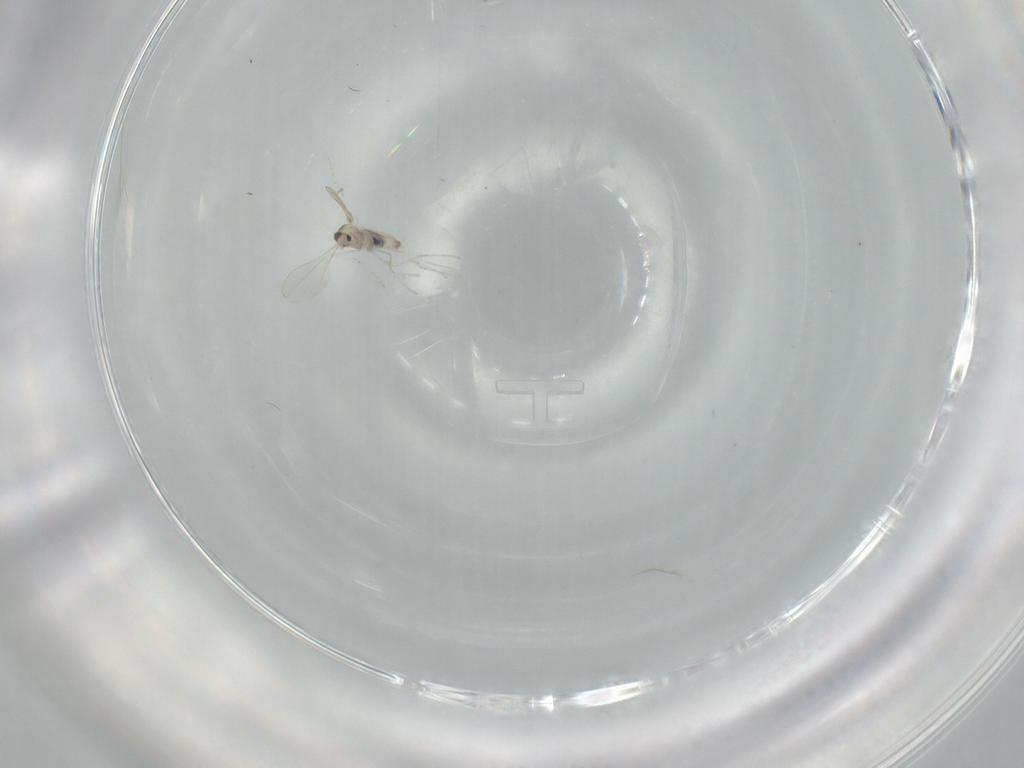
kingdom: Animalia
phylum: Arthropoda
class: Insecta
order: Diptera
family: Cecidomyiidae
